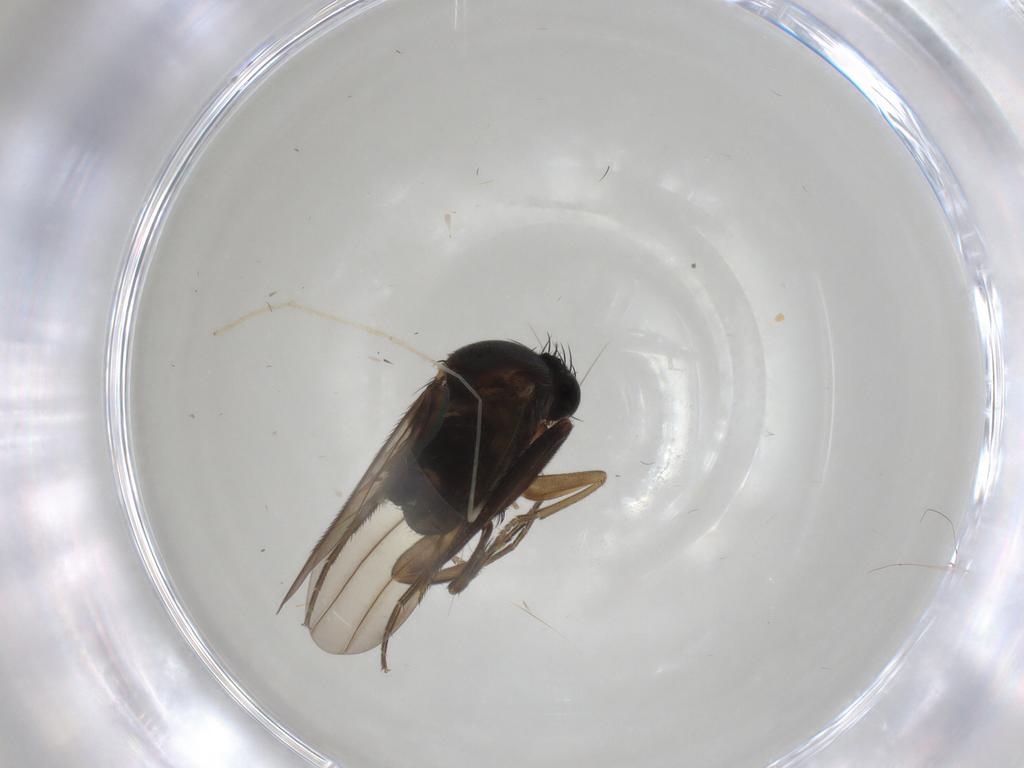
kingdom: Animalia
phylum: Arthropoda
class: Insecta
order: Diptera
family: Phoridae
